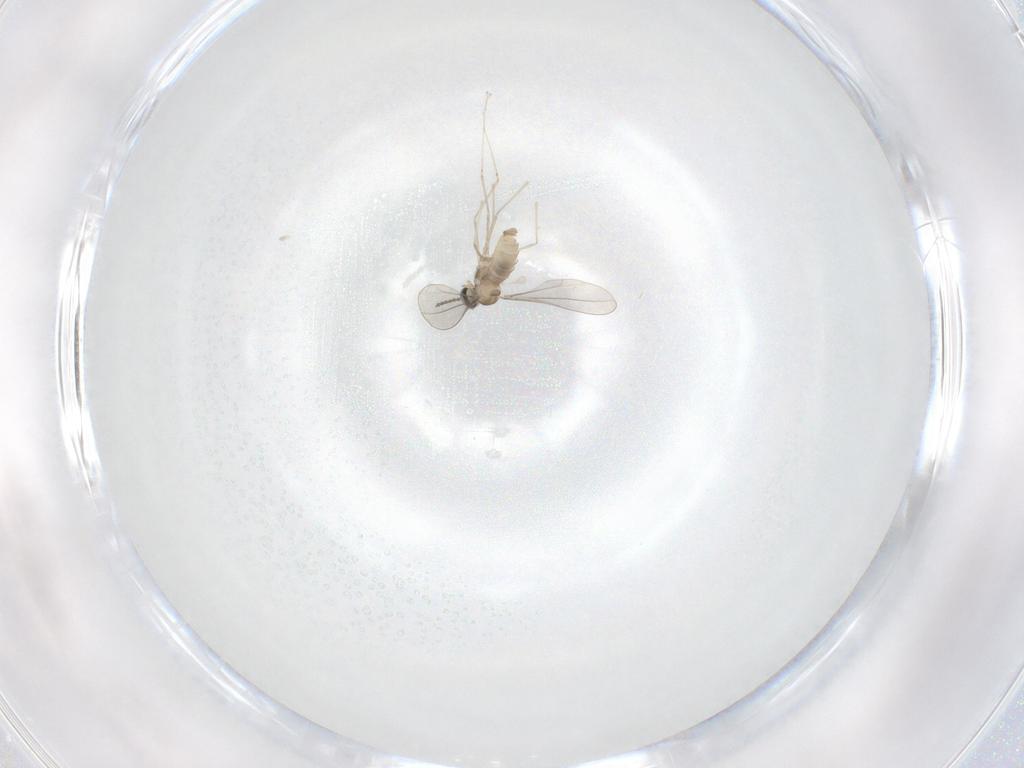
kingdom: Animalia
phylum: Arthropoda
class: Insecta
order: Diptera
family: Cecidomyiidae
